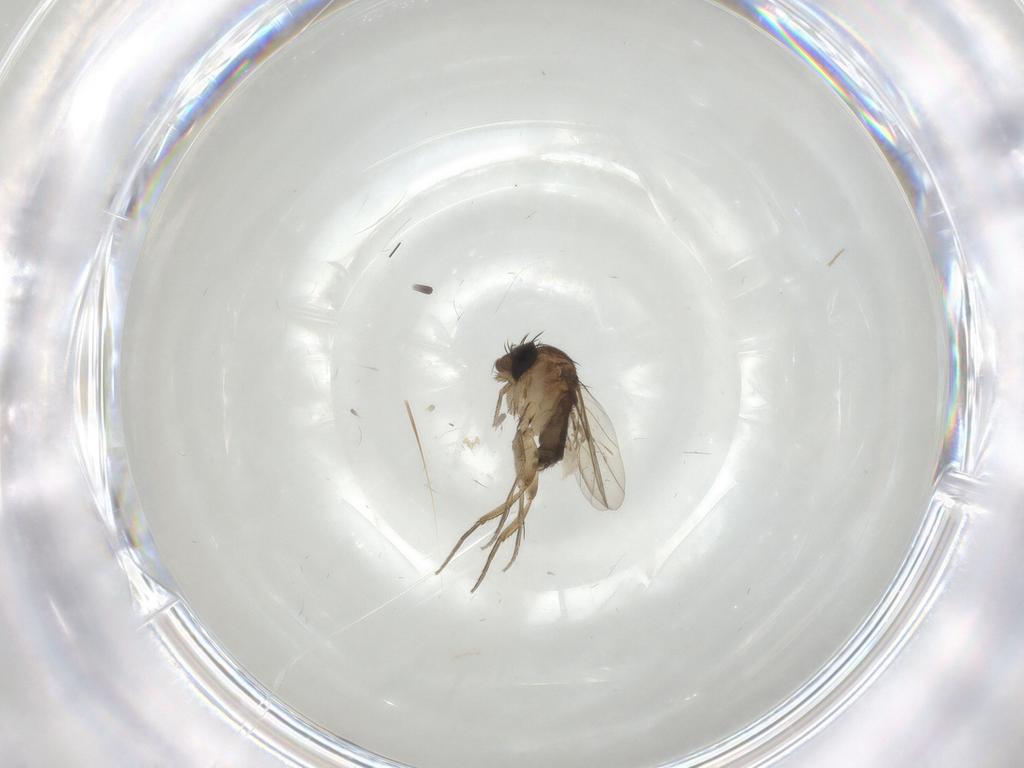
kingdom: Animalia
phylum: Arthropoda
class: Insecta
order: Diptera
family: Phoridae
